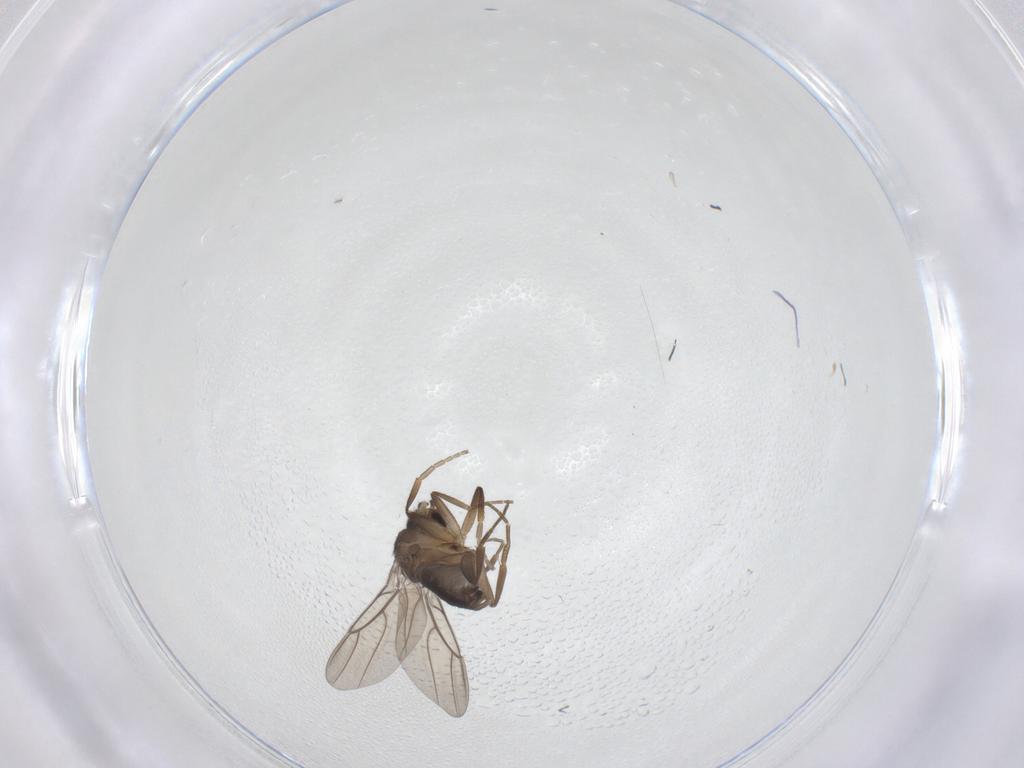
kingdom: Animalia
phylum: Arthropoda
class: Insecta
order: Diptera
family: Phoridae
